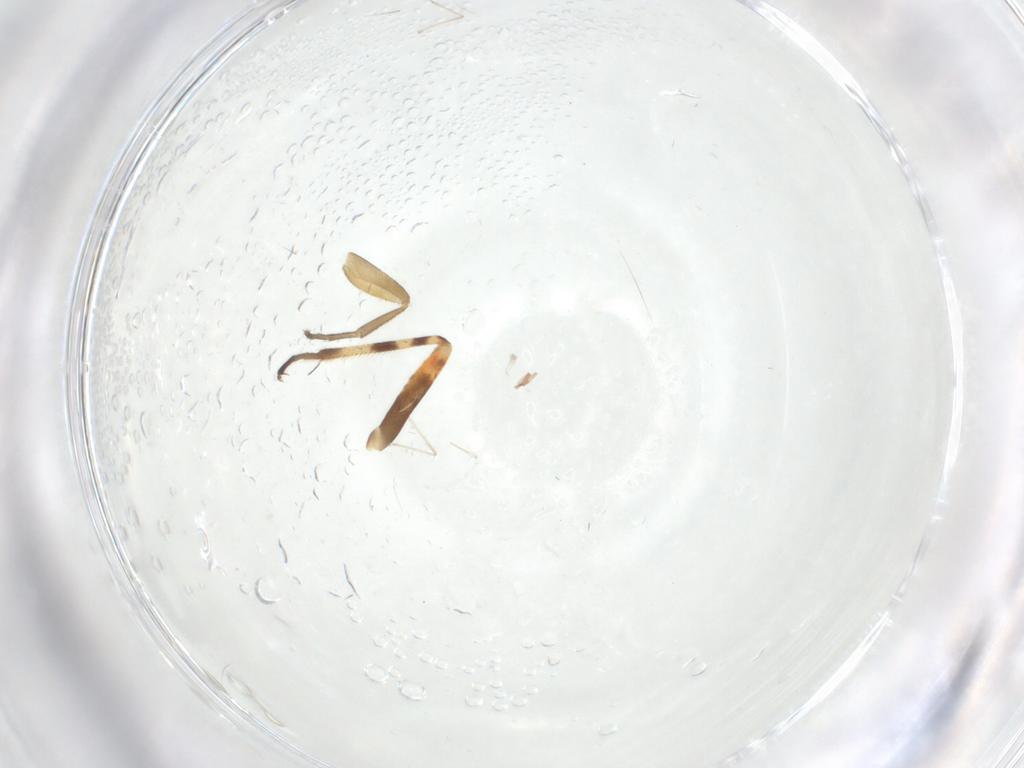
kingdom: Animalia
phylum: Arthropoda
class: Insecta
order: Diptera
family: Phoridae
